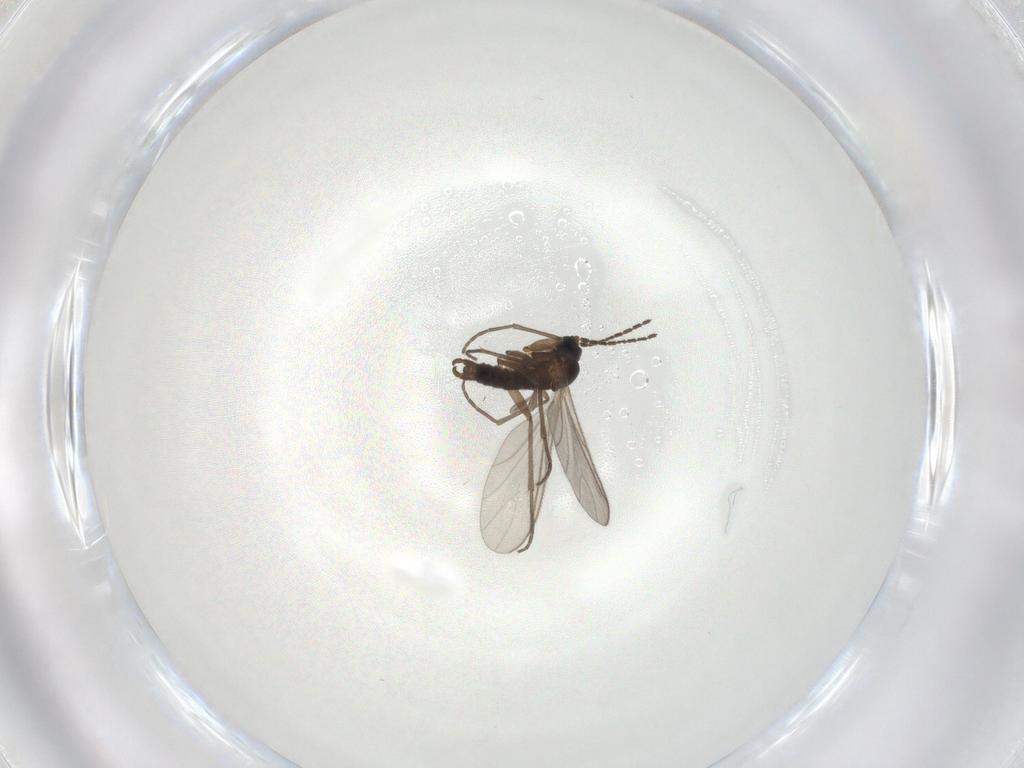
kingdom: Animalia
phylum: Arthropoda
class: Insecta
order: Diptera
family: Sciaridae
